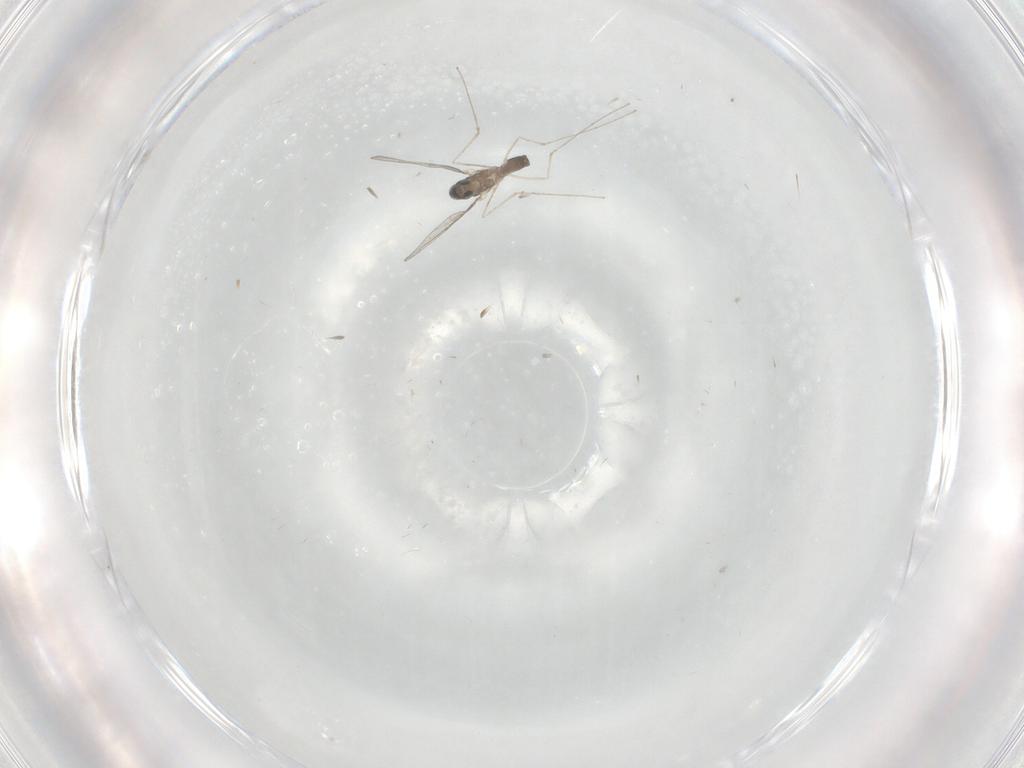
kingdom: Animalia
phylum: Arthropoda
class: Insecta
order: Diptera
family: Cecidomyiidae
